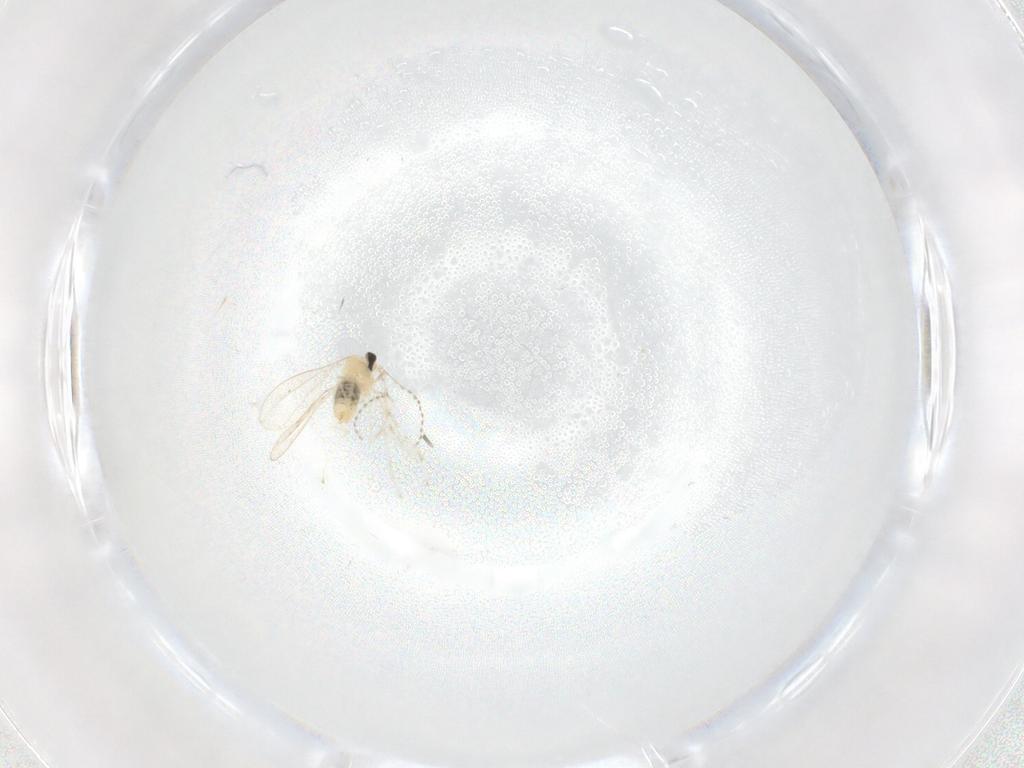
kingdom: Animalia
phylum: Arthropoda
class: Insecta
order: Diptera
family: Cecidomyiidae
